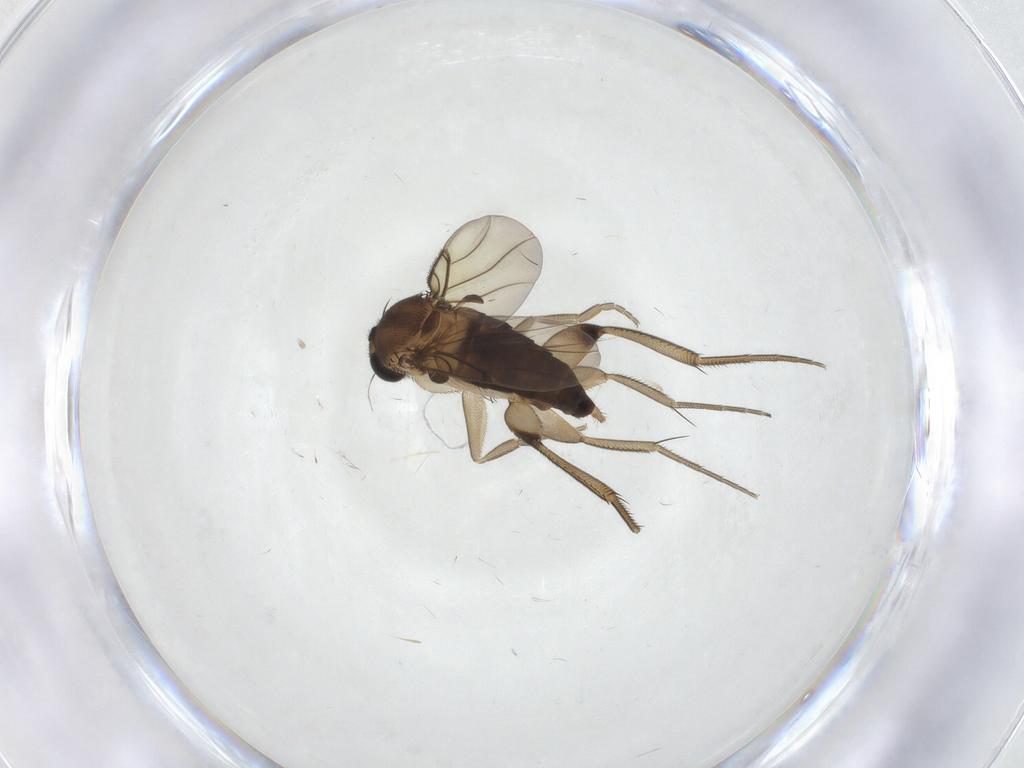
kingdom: Animalia
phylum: Arthropoda
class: Insecta
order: Diptera
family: Phoridae
